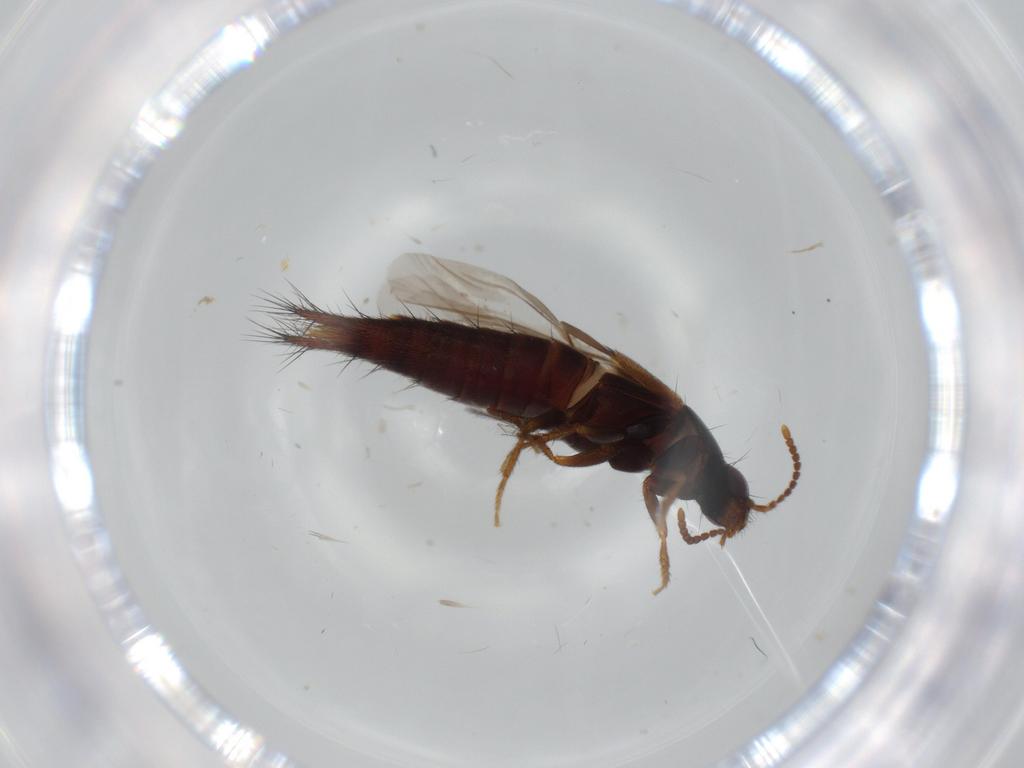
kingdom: Animalia
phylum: Arthropoda
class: Insecta
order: Coleoptera
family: Staphylinidae
